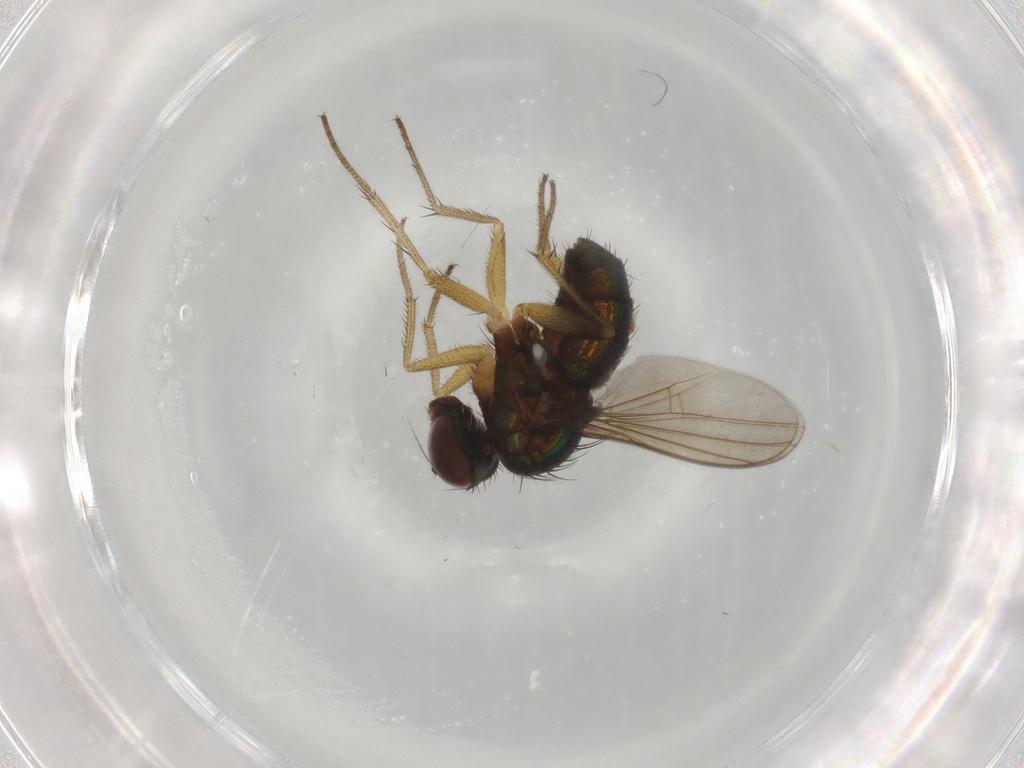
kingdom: Animalia
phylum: Arthropoda
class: Insecta
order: Diptera
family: Dolichopodidae
